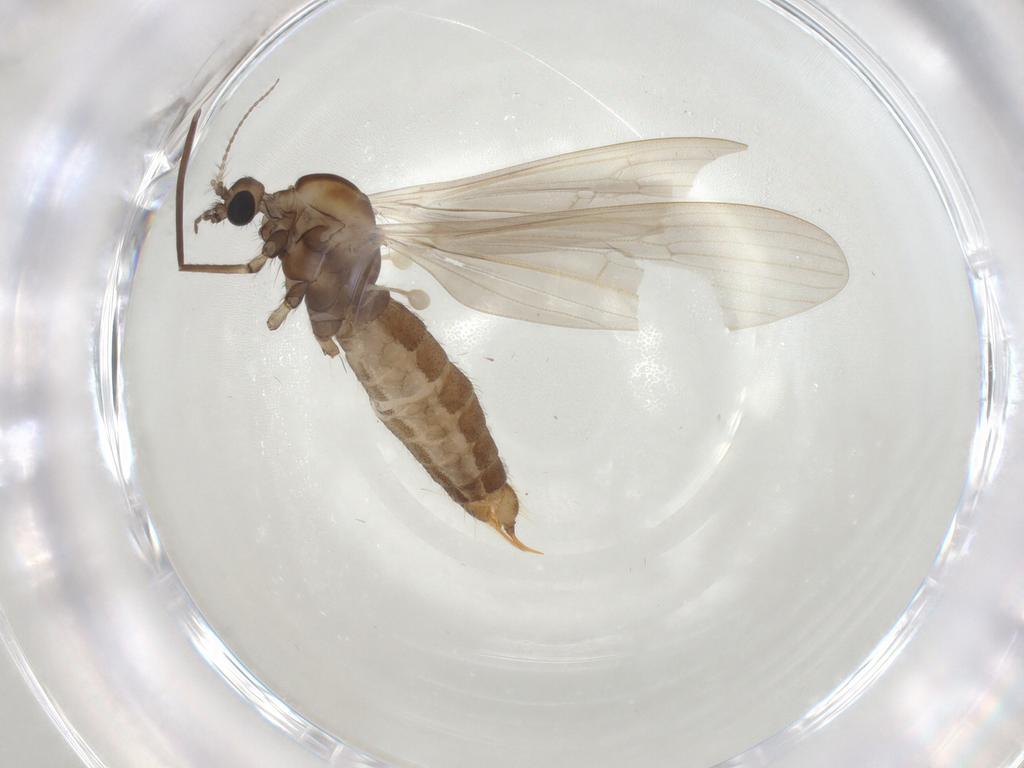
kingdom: Animalia
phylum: Arthropoda
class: Insecta
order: Diptera
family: Limoniidae
